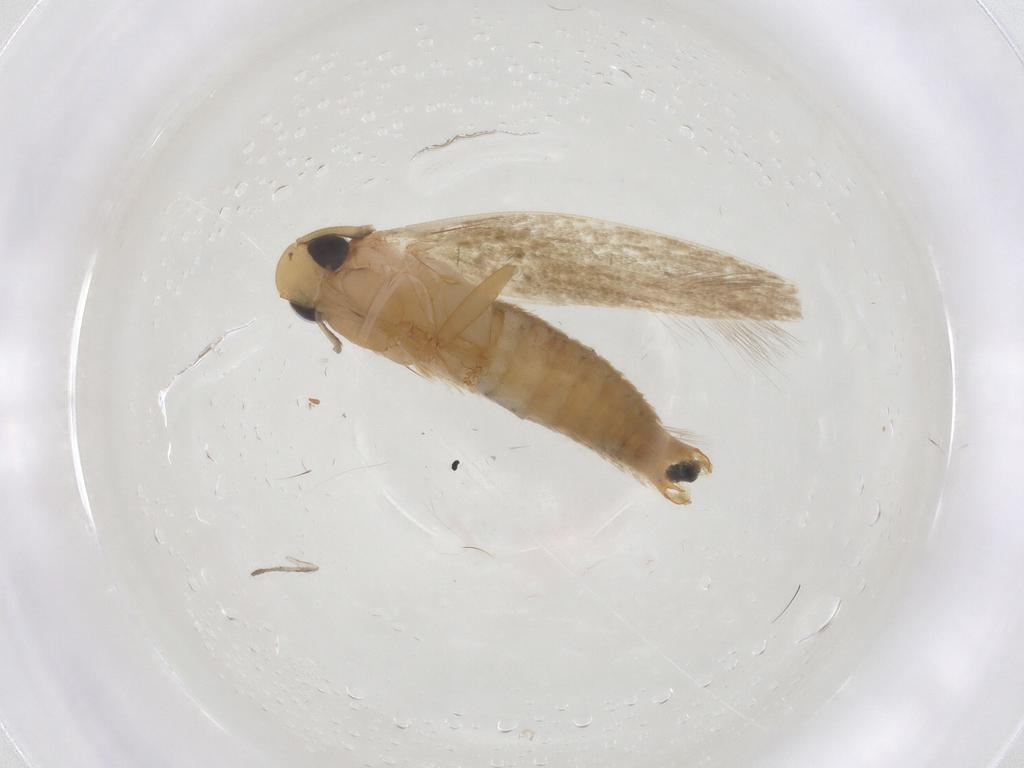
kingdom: Animalia
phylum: Arthropoda
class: Insecta
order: Lepidoptera
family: Tineidae
